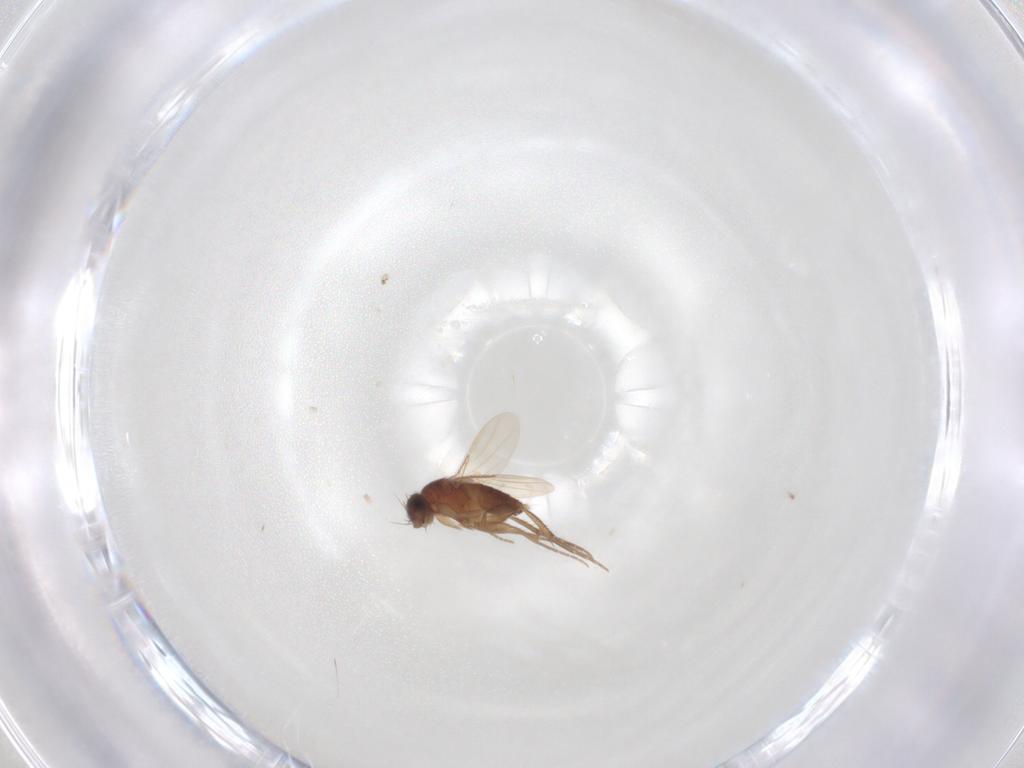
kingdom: Animalia
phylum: Arthropoda
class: Insecta
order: Diptera
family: Phoridae
